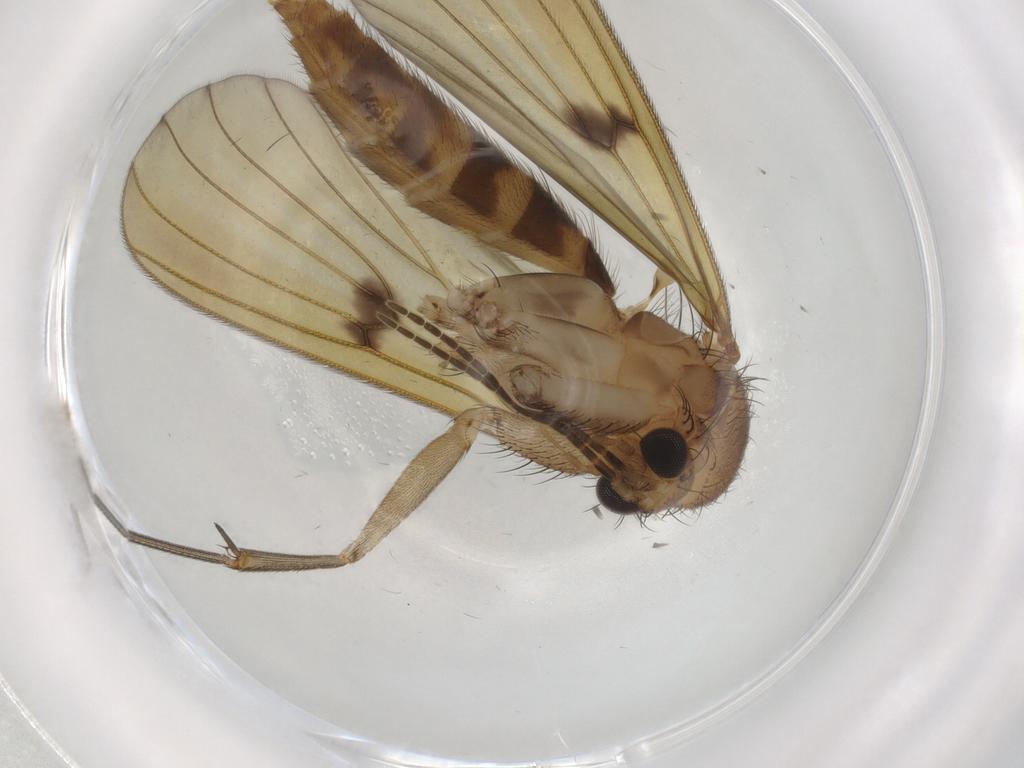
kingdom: Animalia
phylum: Arthropoda
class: Insecta
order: Diptera
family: Mycetophilidae
